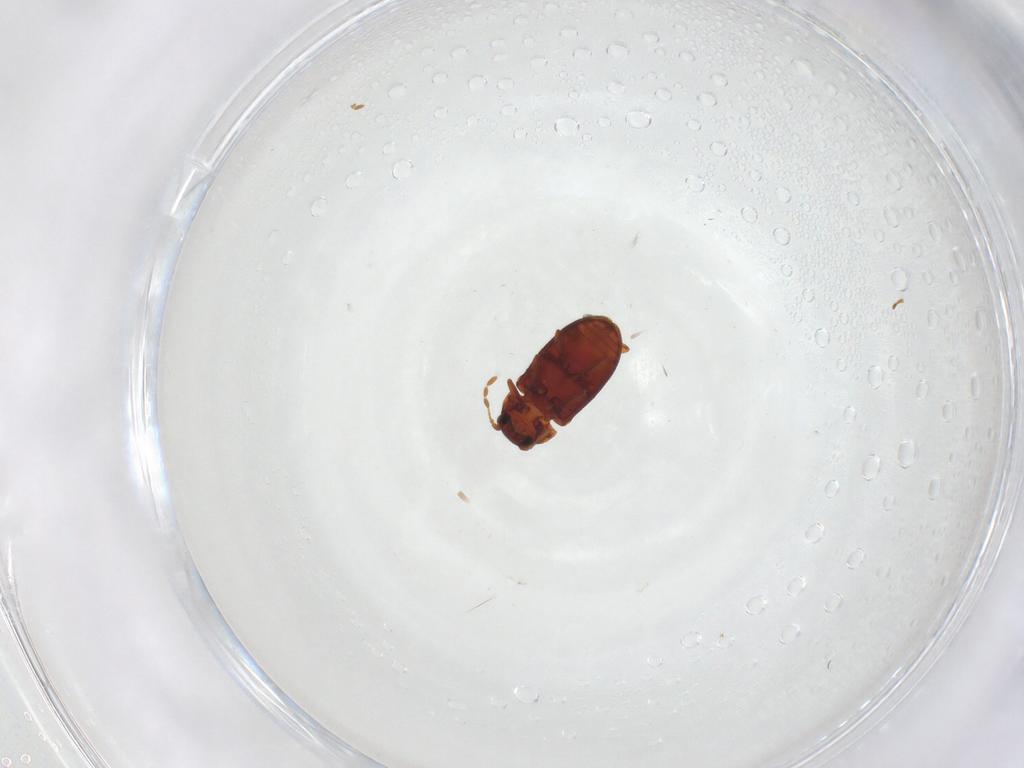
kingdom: Animalia
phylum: Arthropoda
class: Insecta
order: Coleoptera
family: Ptinidae
